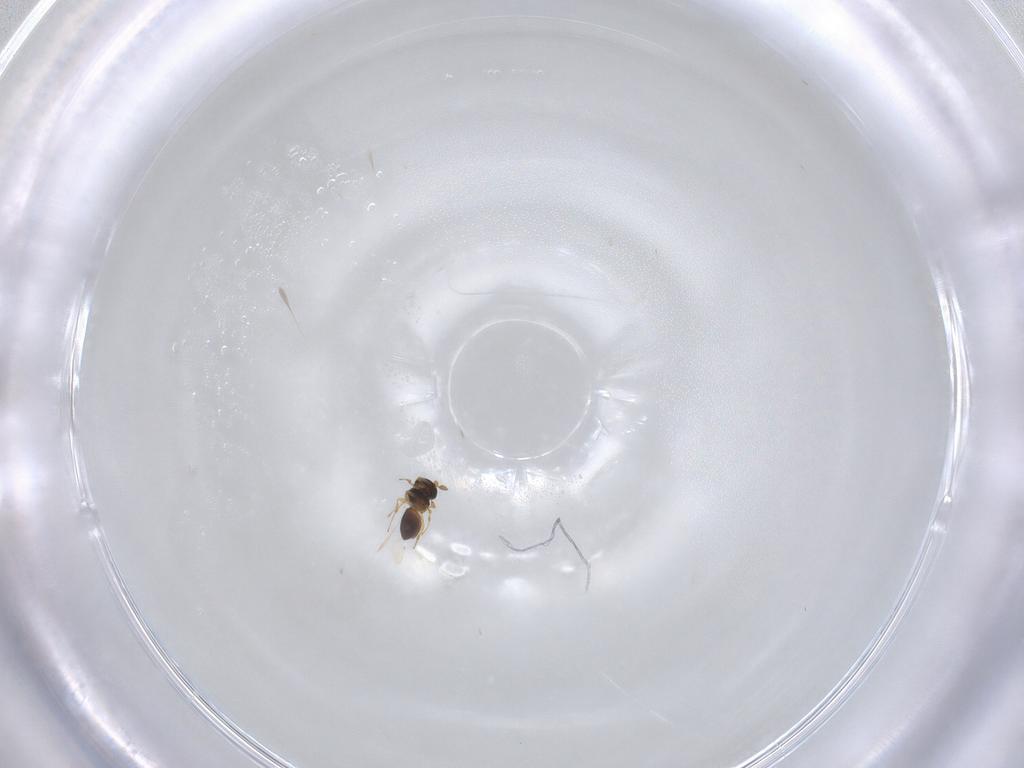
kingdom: Animalia
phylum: Arthropoda
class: Insecta
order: Hymenoptera
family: Platygastridae
